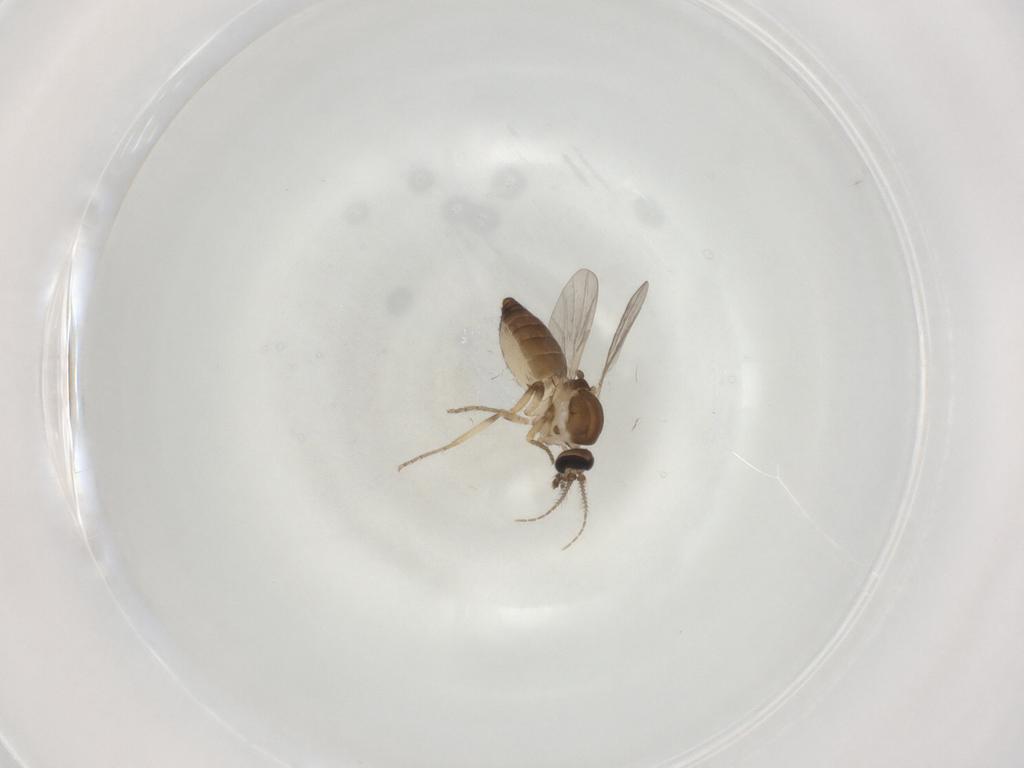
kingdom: Animalia
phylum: Arthropoda
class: Insecta
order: Diptera
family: Ceratopogonidae
